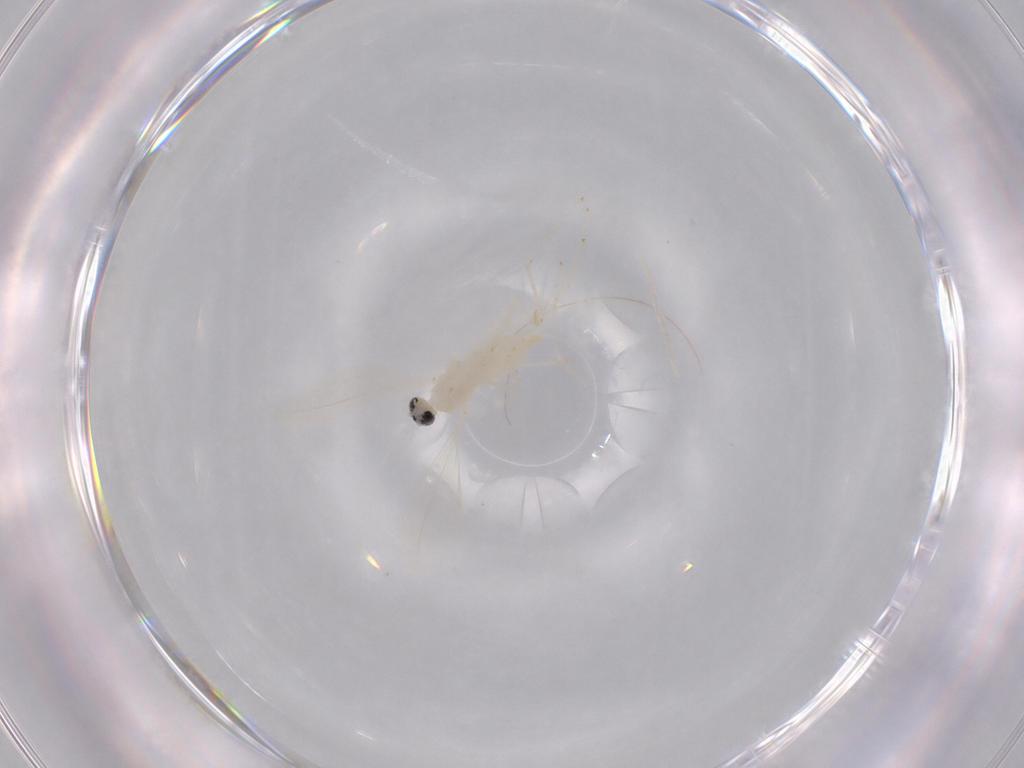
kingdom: Animalia
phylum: Arthropoda
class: Insecta
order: Diptera
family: Cecidomyiidae
